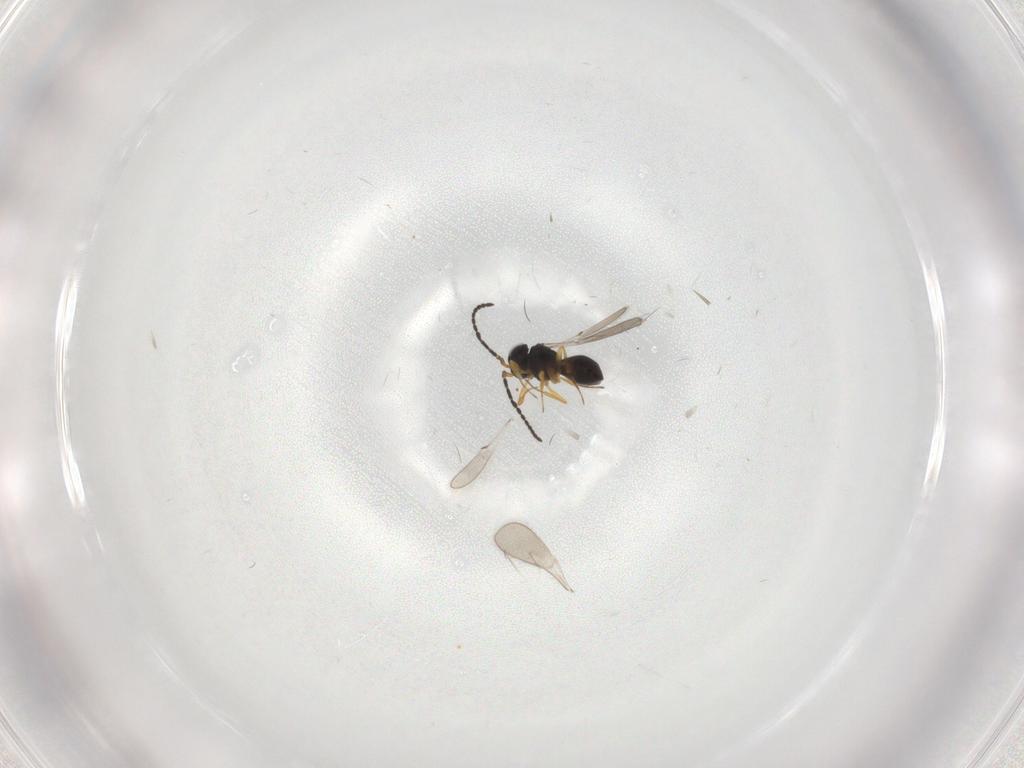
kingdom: Animalia
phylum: Arthropoda
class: Insecta
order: Hymenoptera
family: Scelionidae
